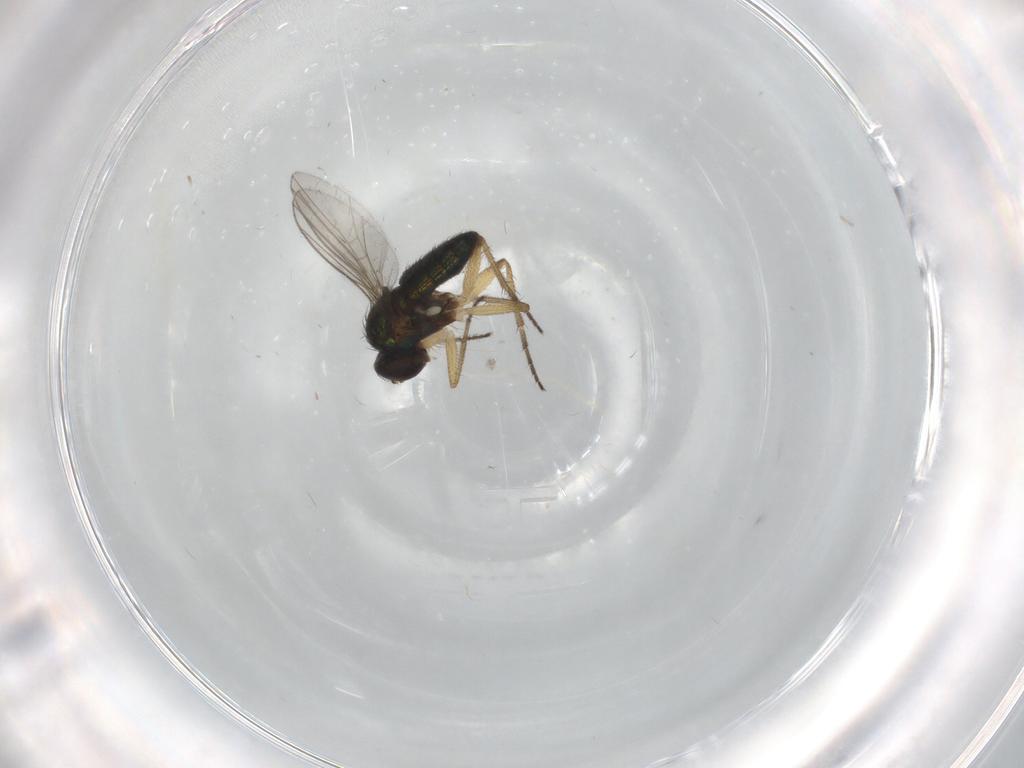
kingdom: Animalia
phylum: Arthropoda
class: Insecta
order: Diptera
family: Dolichopodidae
